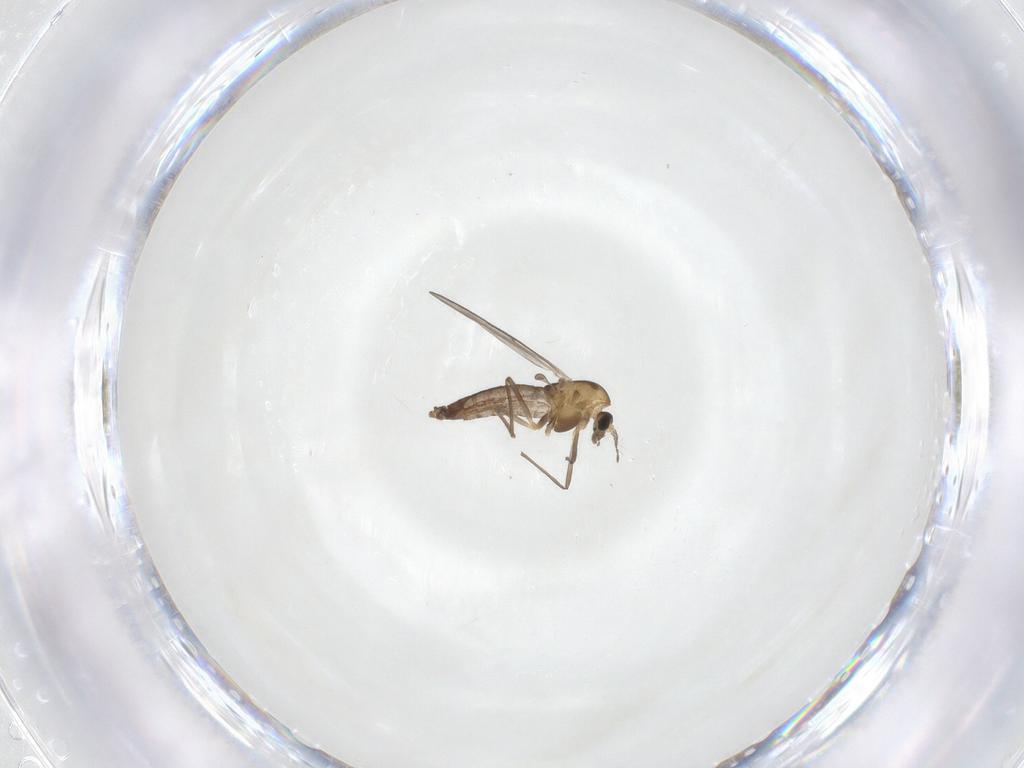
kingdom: Animalia
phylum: Arthropoda
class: Insecta
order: Diptera
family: Chironomidae
